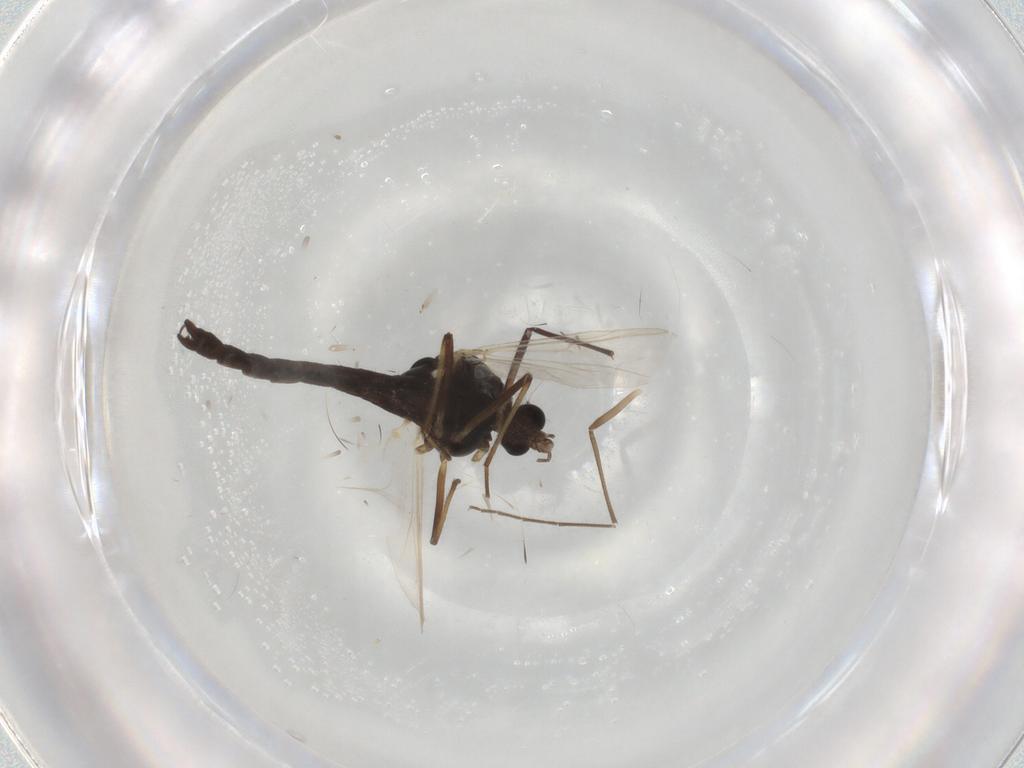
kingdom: Animalia
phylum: Arthropoda
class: Insecta
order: Diptera
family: Chironomidae
